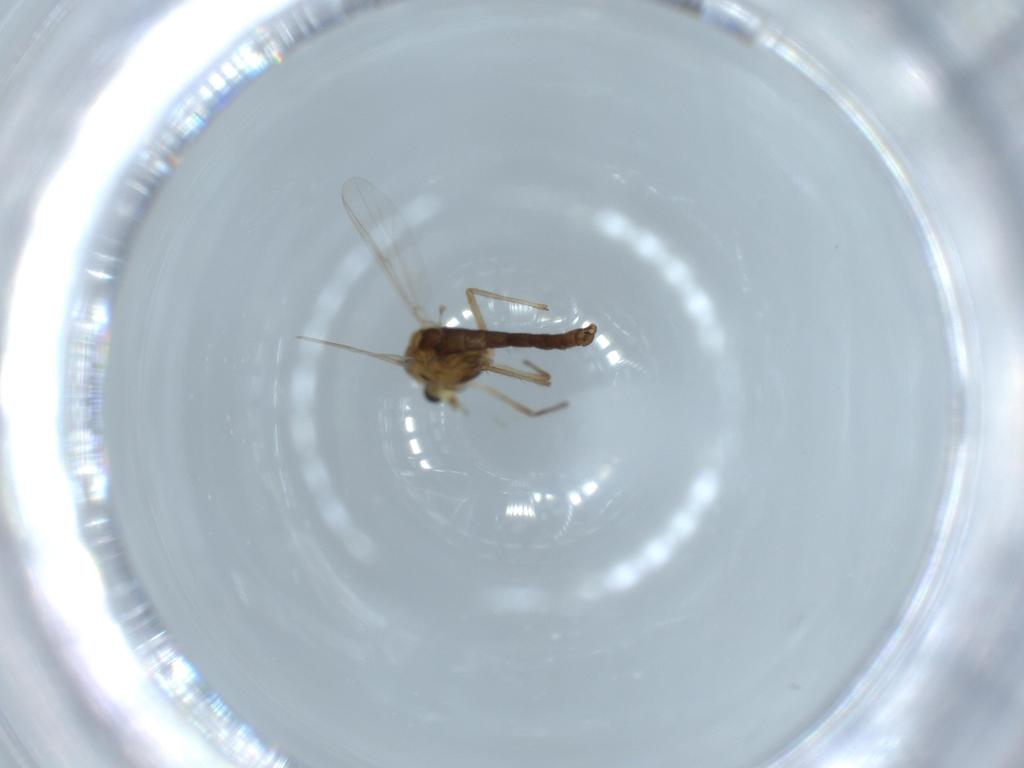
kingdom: Animalia
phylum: Arthropoda
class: Insecta
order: Diptera
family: Chironomidae
